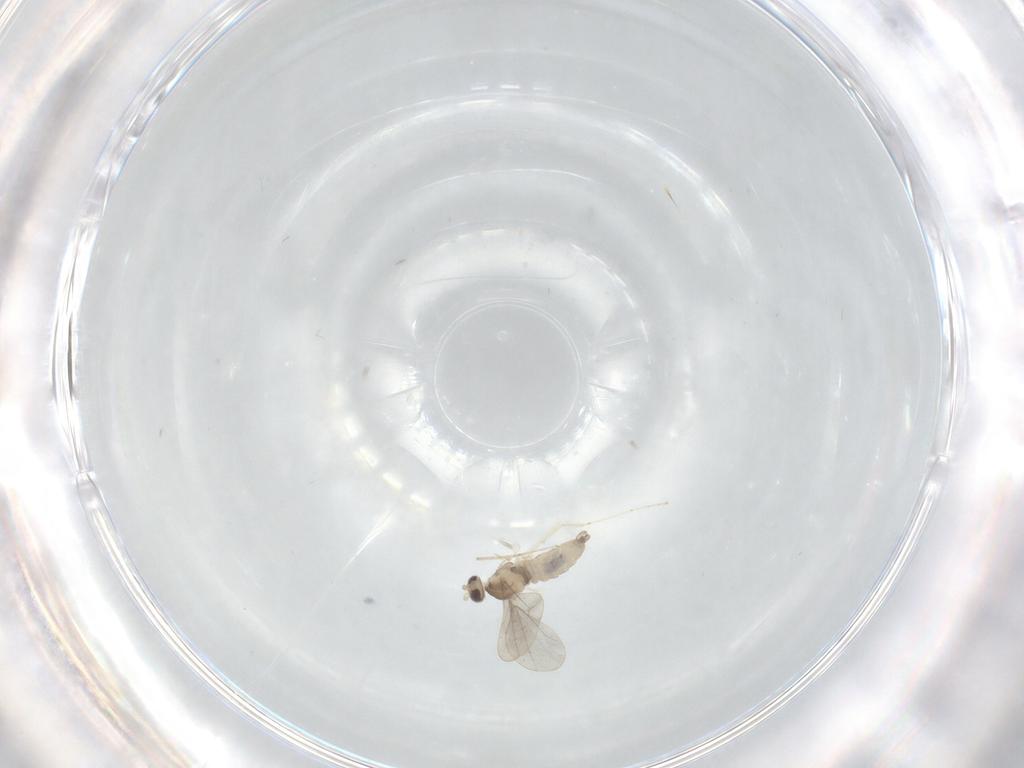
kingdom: Animalia
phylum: Arthropoda
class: Insecta
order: Diptera
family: Cecidomyiidae
